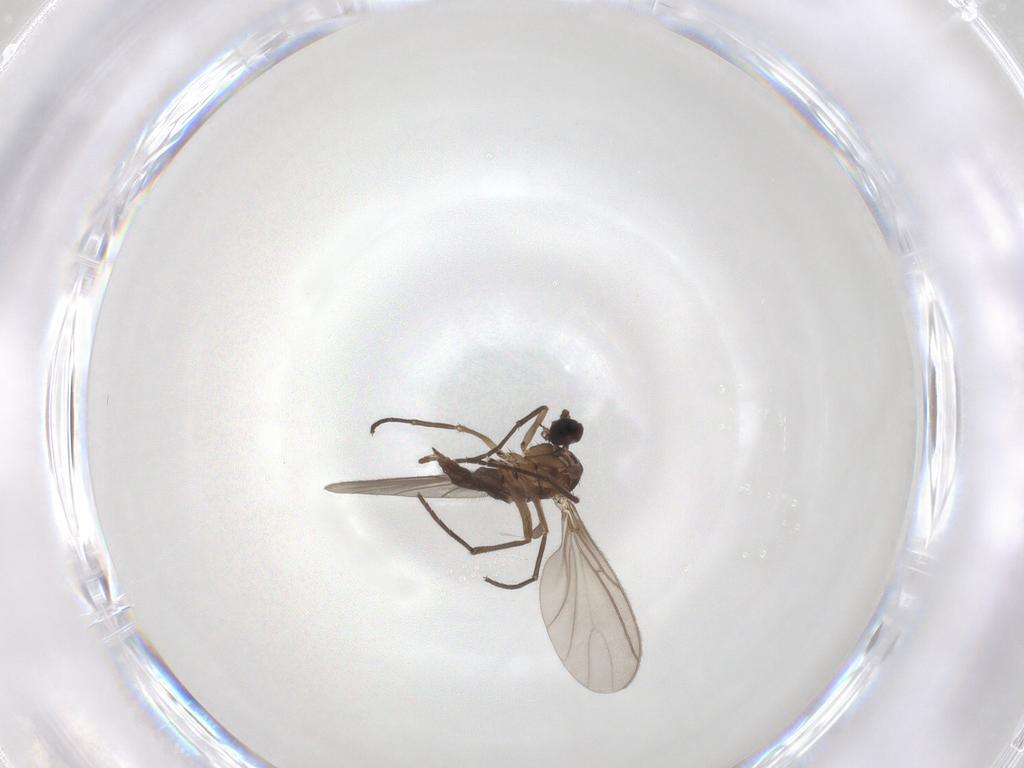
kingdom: Animalia
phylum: Arthropoda
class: Insecta
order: Diptera
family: Sciaridae
